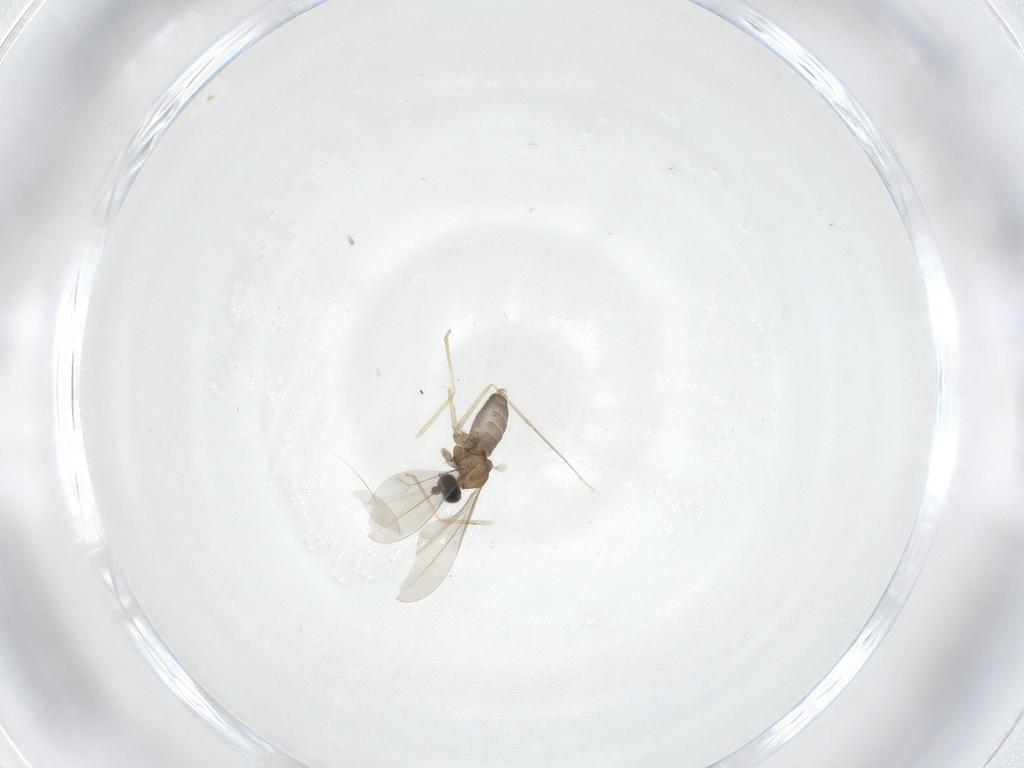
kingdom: Animalia
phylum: Arthropoda
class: Insecta
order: Diptera
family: Cecidomyiidae
